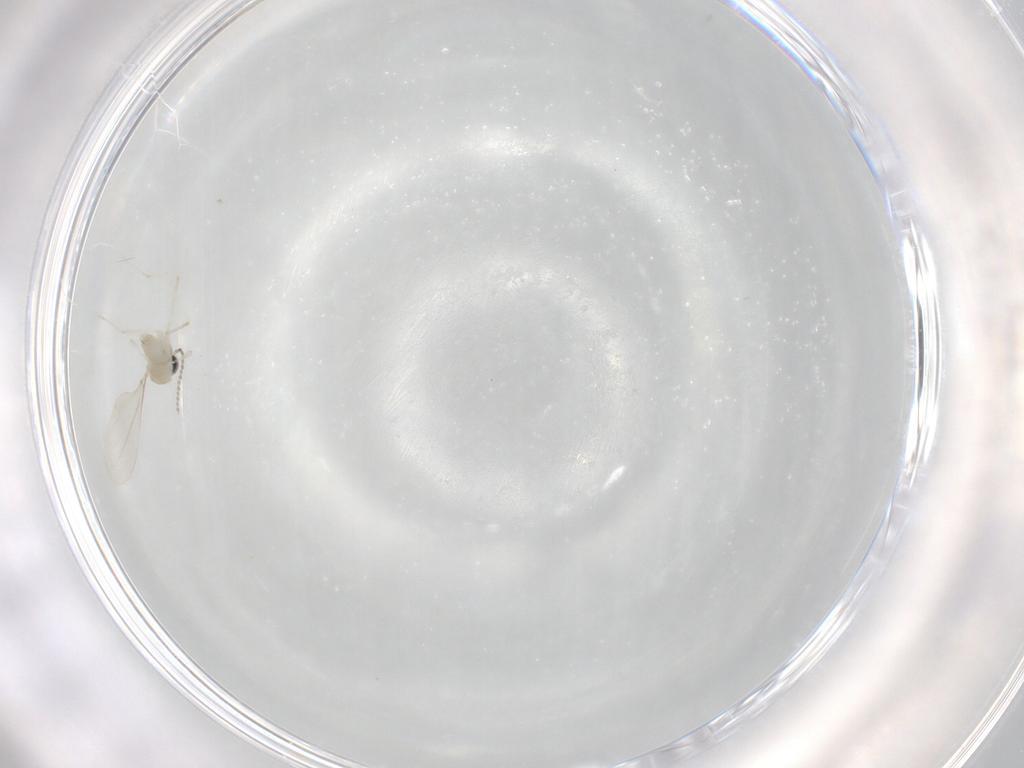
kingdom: Animalia
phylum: Arthropoda
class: Insecta
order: Diptera
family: Cecidomyiidae
